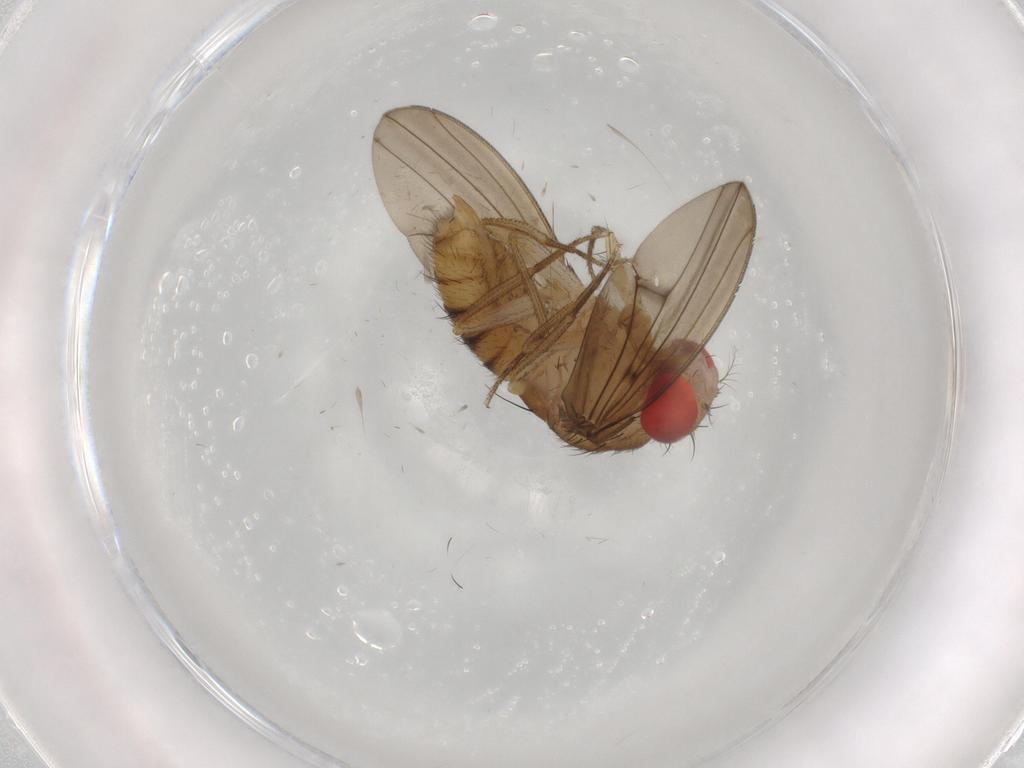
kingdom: Animalia
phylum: Arthropoda
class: Insecta
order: Diptera
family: Drosophilidae
